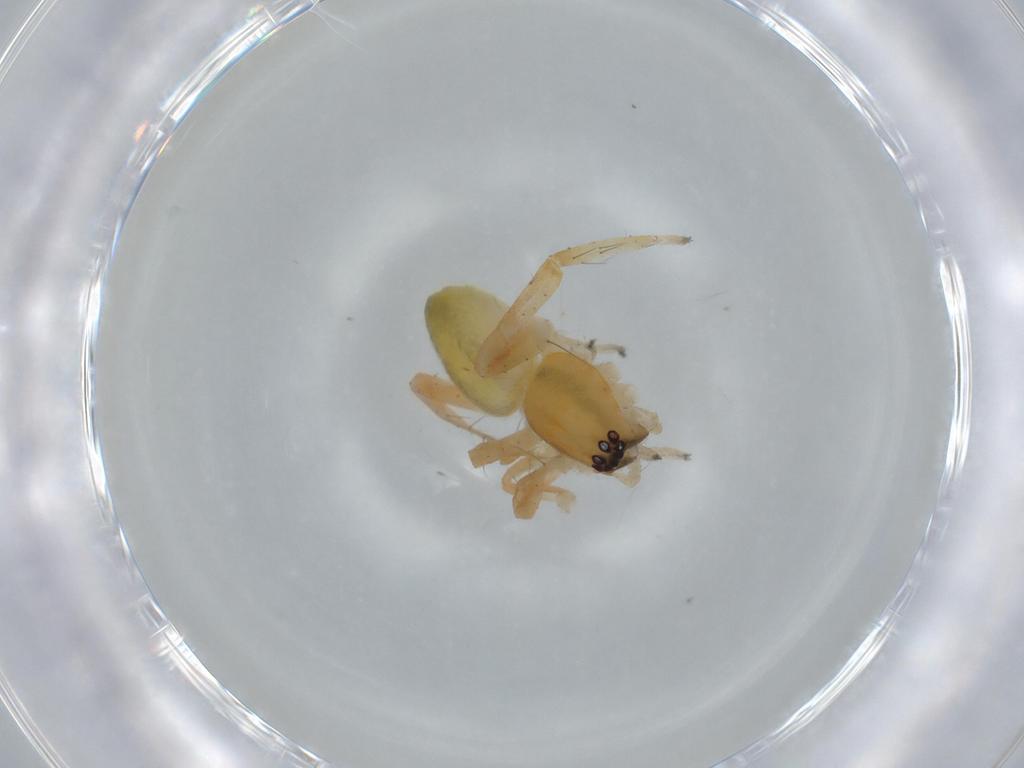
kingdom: Animalia
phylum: Arthropoda
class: Arachnida
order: Araneae
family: Anyphaenidae
